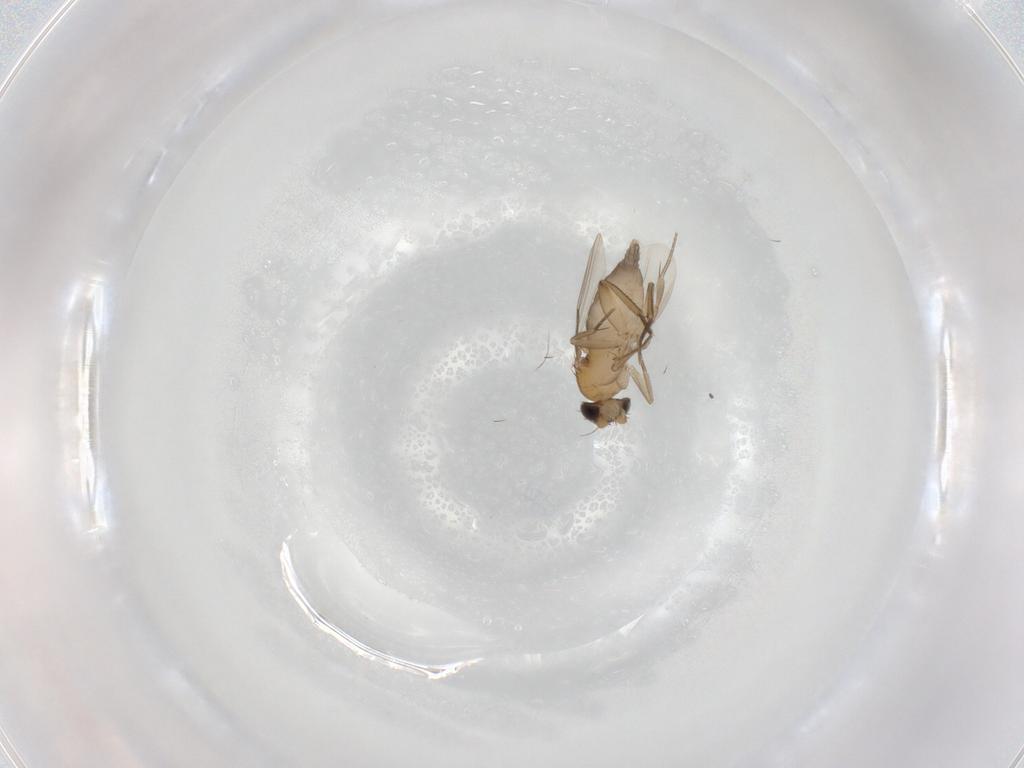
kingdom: Animalia
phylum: Arthropoda
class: Insecta
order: Diptera
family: Phoridae
